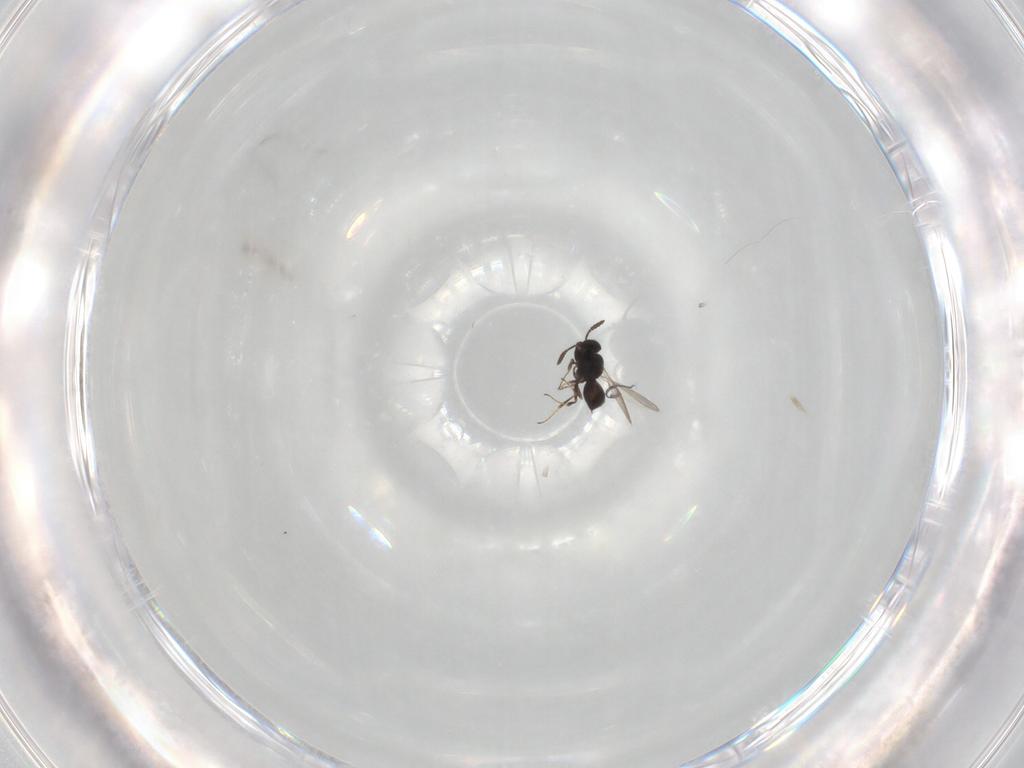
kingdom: Animalia
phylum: Arthropoda
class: Insecta
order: Hymenoptera
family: Scelionidae
